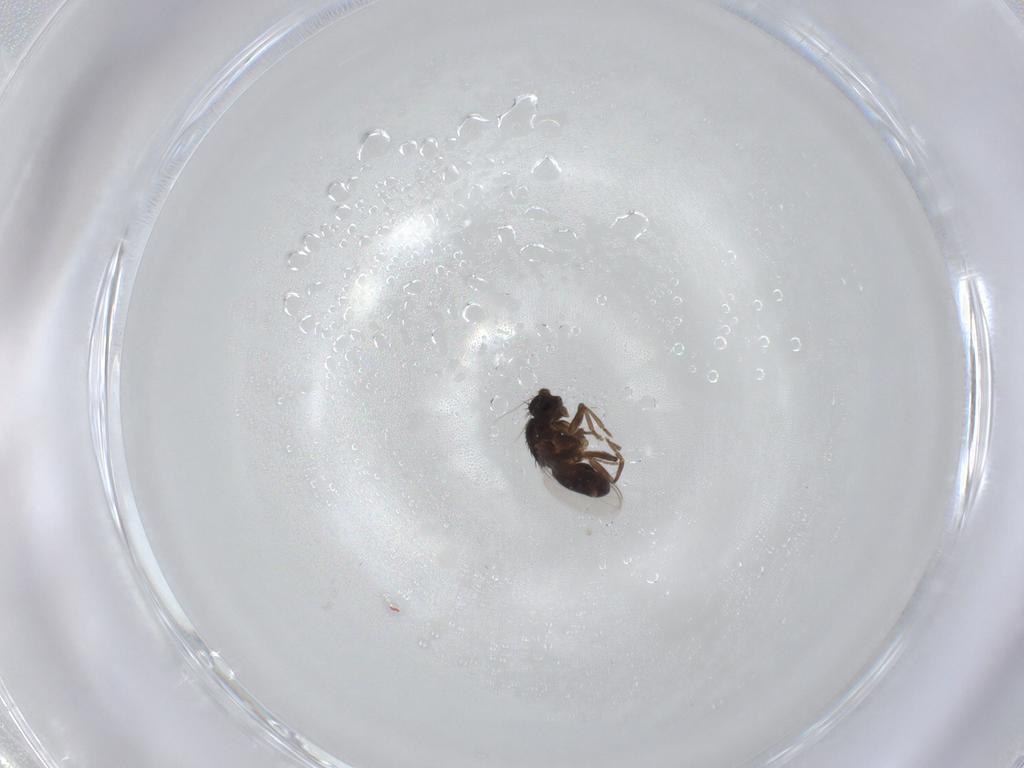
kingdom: Animalia
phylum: Arthropoda
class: Insecta
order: Diptera
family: Sphaeroceridae
